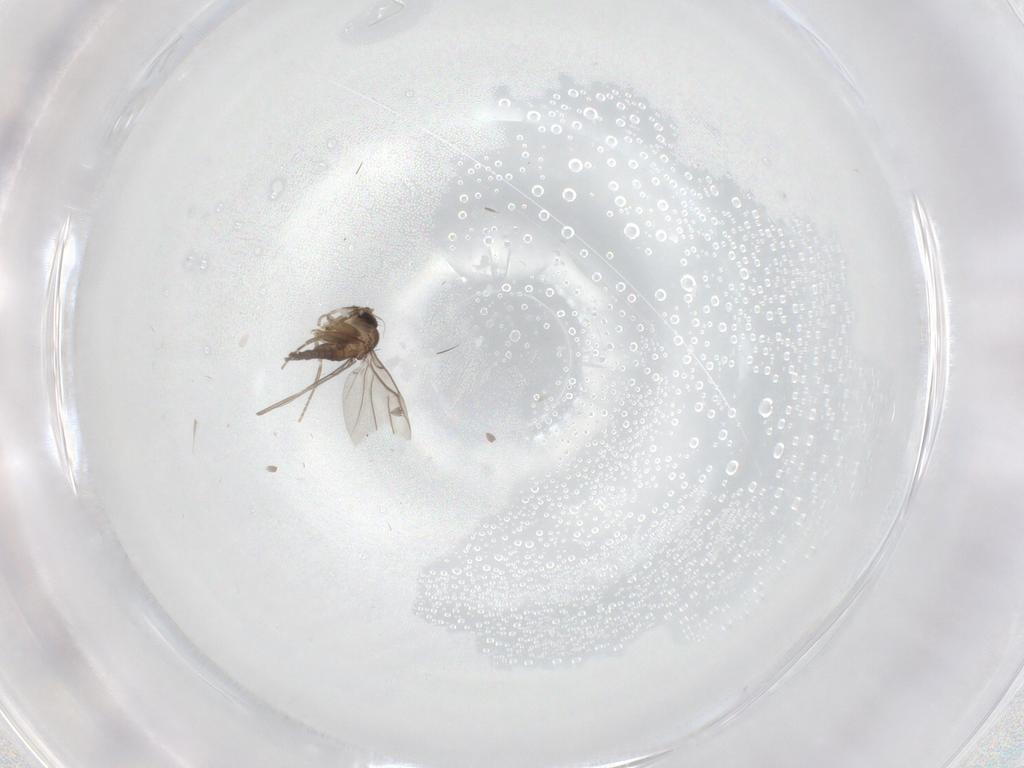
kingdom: Animalia
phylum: Arthropoda
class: Insecta
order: Diptera
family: Phoridae
